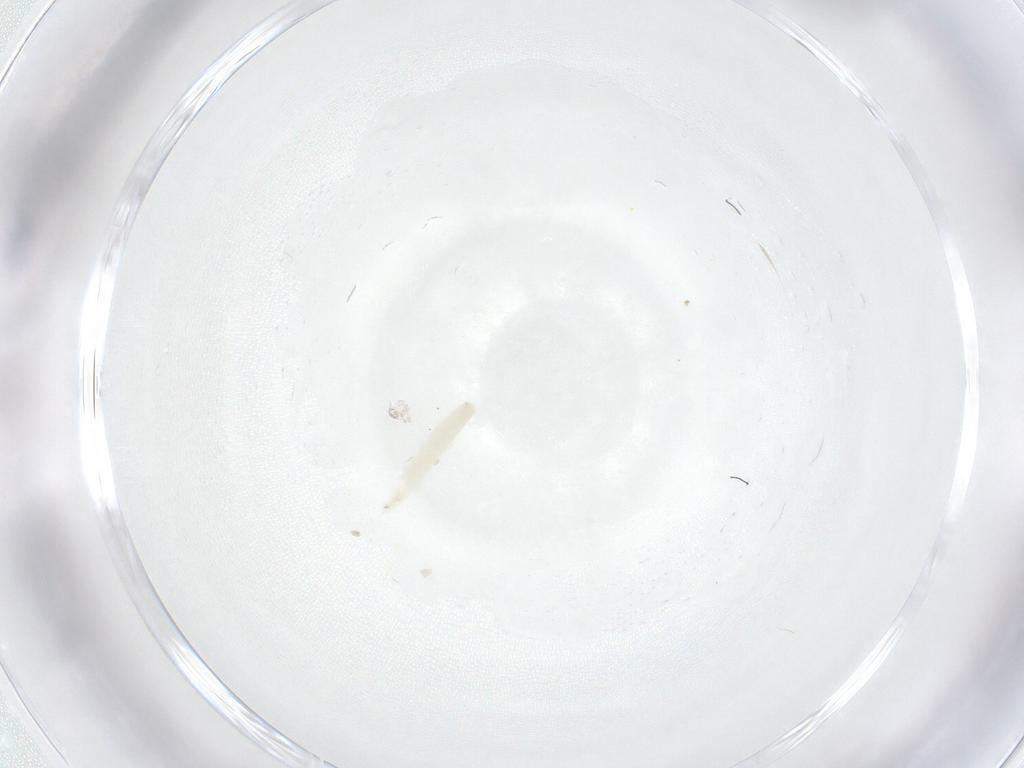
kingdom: Animalia
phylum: Arthropoda
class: Insecta
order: Diptera
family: Sarcophagidae
